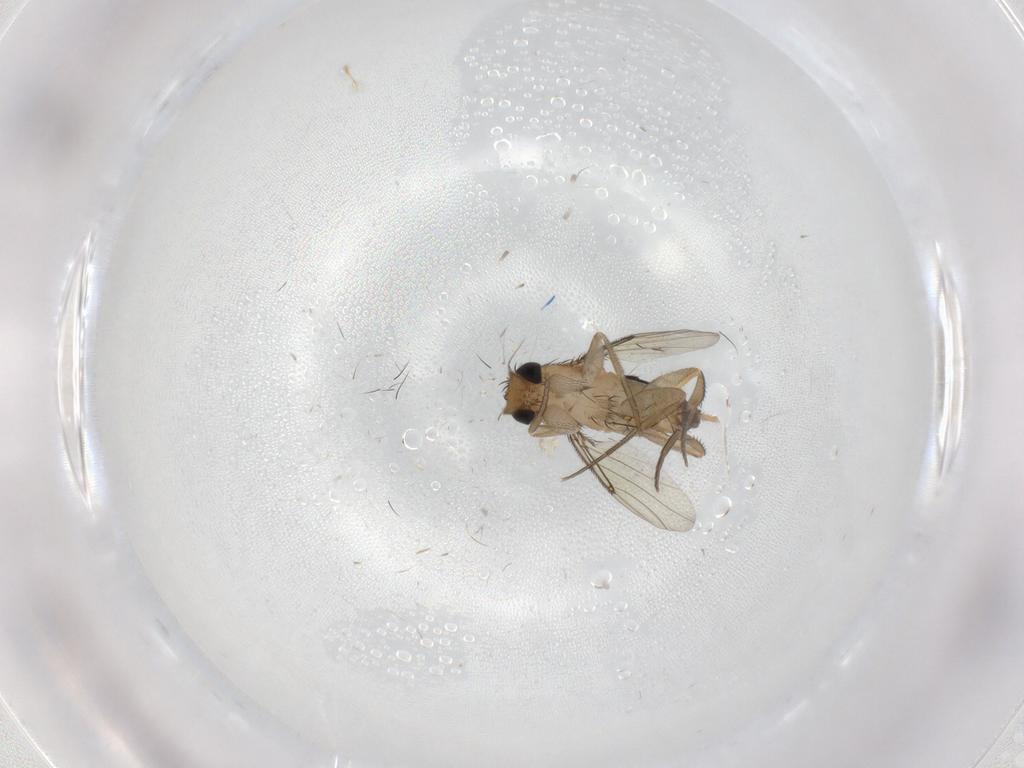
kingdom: Animalia
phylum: Arthropoda
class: Insecta
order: Diptera
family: Phoridae
